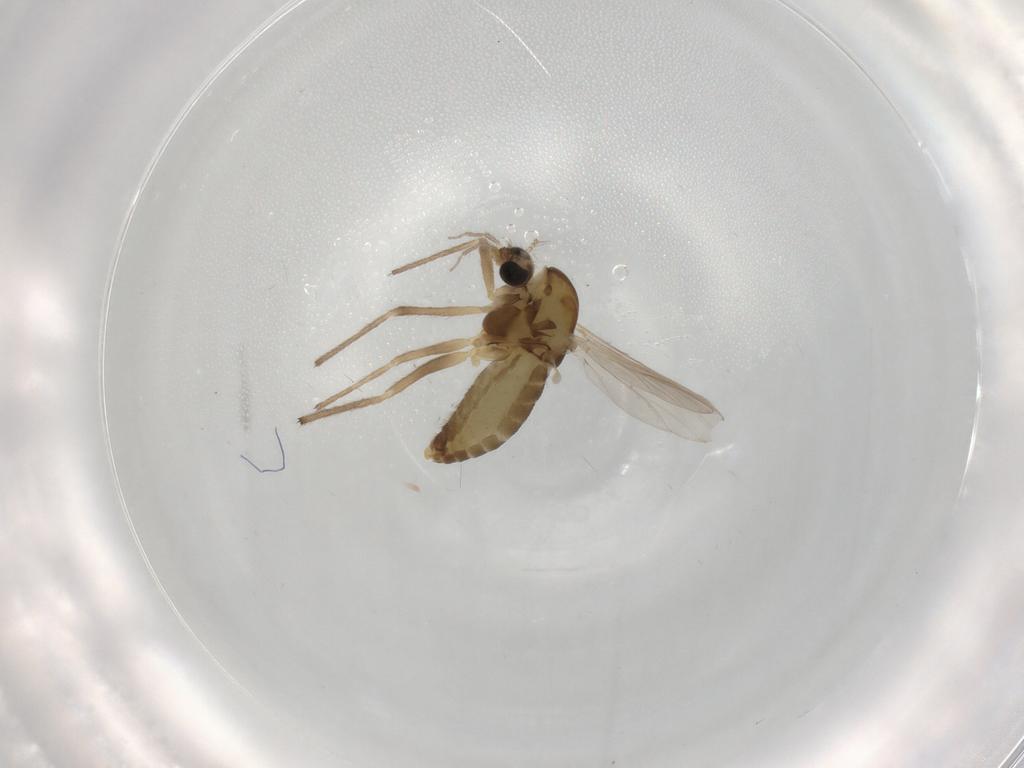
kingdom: Animalia
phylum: Arthropoda
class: Insecta
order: Diptera
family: Chironomidae
